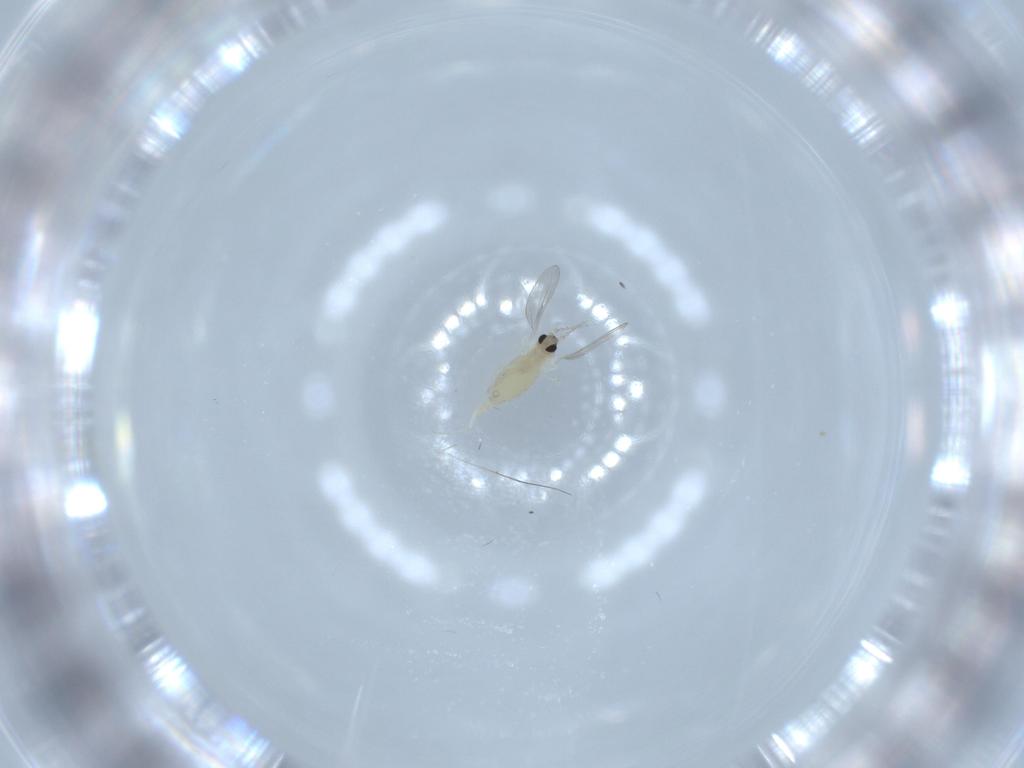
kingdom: Animalia
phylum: Arthropoda
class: Insecta
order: Diptera
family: Cecidomyiidae
